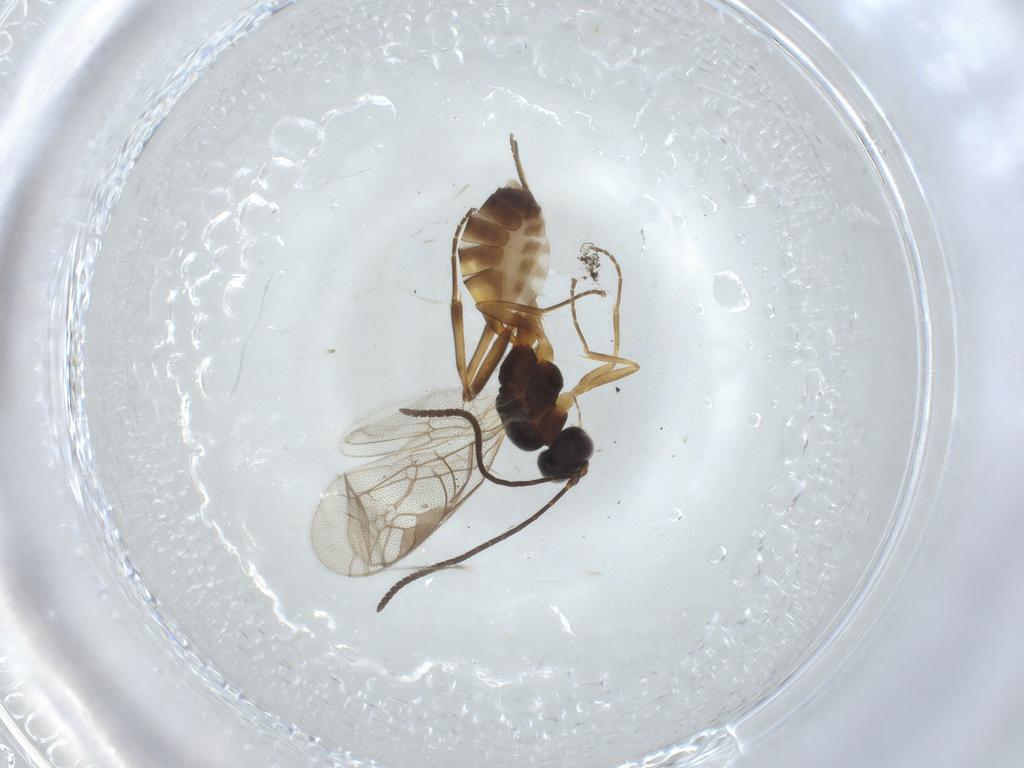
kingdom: Animalia
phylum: Arthropoda
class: Insecta
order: Hymenoptera
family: Ichneumonidae
